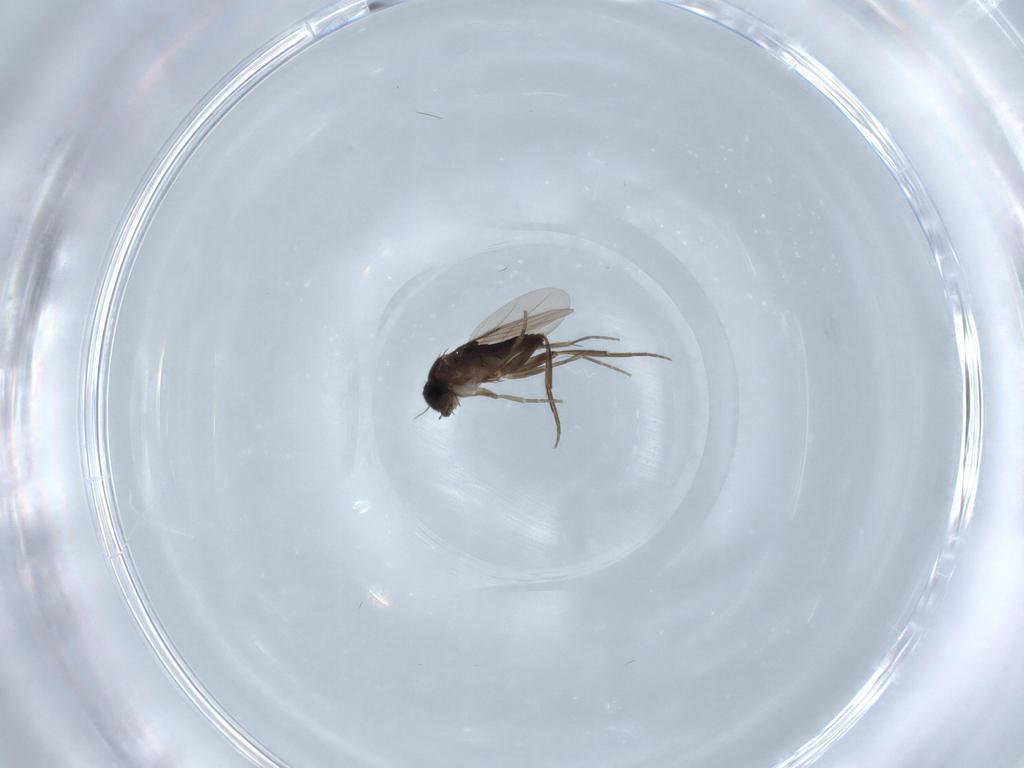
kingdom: Animalia
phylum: Arthropoda
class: Insecta
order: Diptera
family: Phoridae
